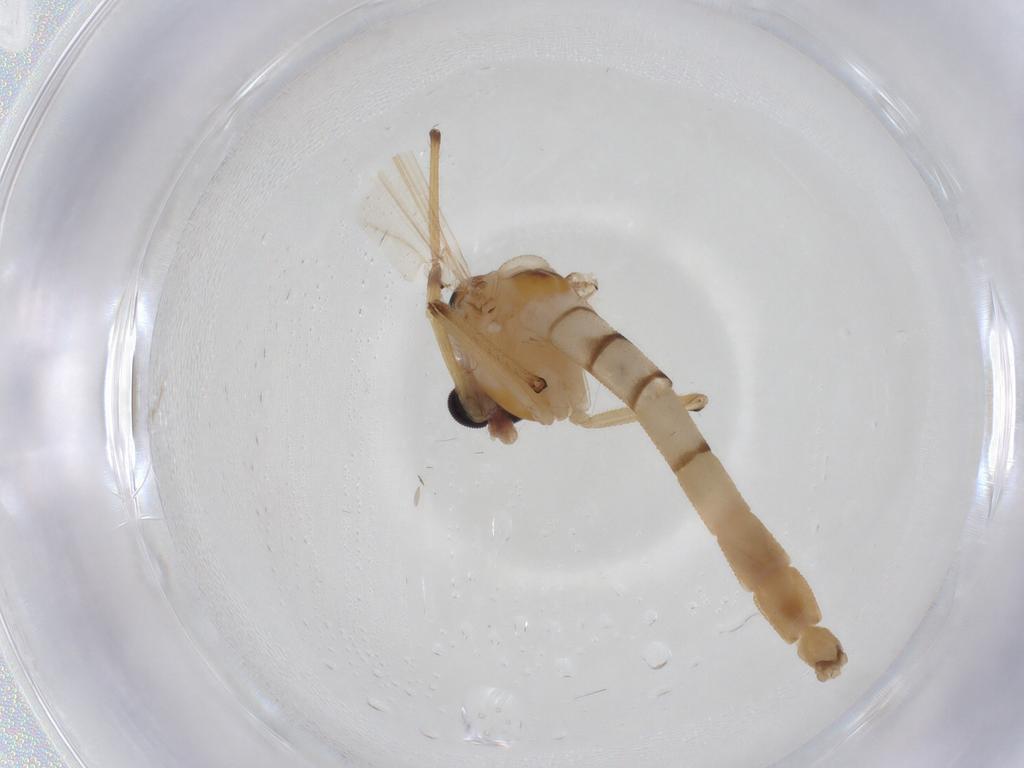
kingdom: Animalia
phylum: Arthropoda
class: Insecta
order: Diptera
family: Chironomidae
